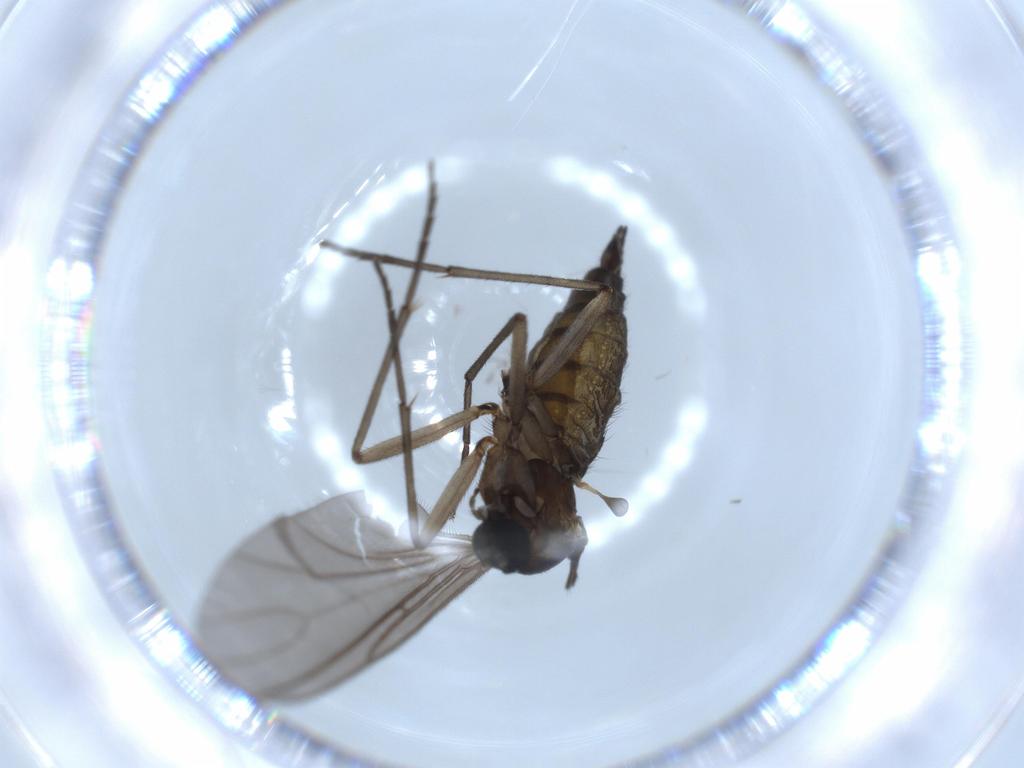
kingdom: Animalia
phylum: Arthropoda
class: Insecta
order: Diptera
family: Sciaridae
